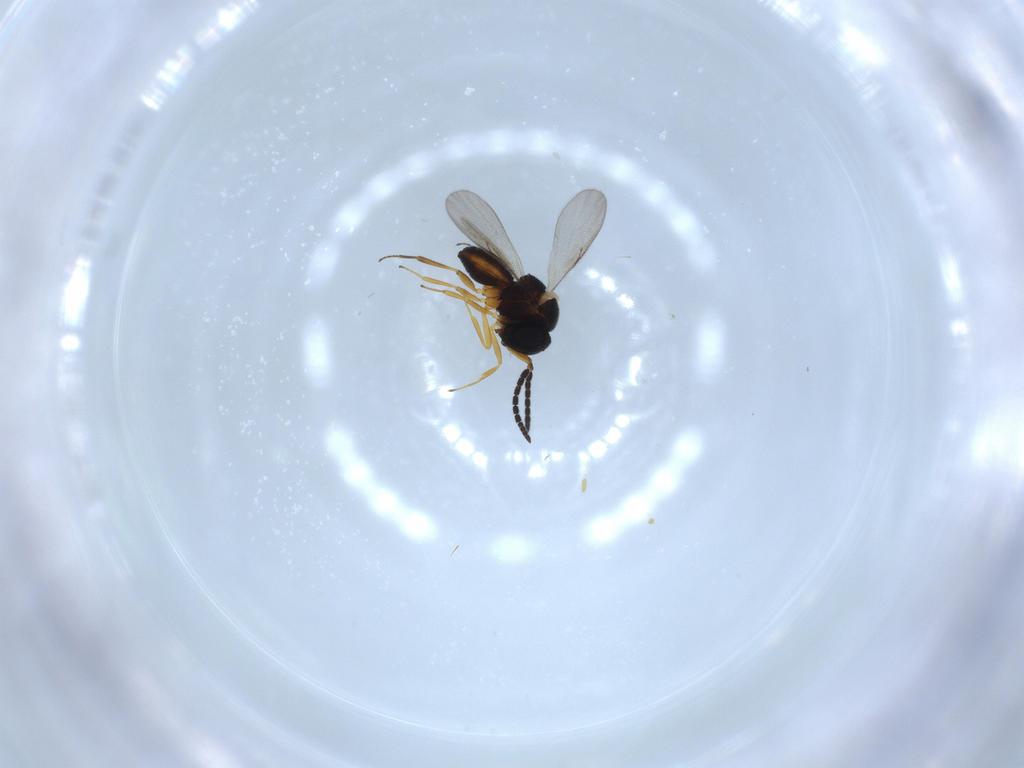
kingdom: Animalia
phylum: Arthropoda
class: Insecta
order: Hymenoptera
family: Scelionidae
